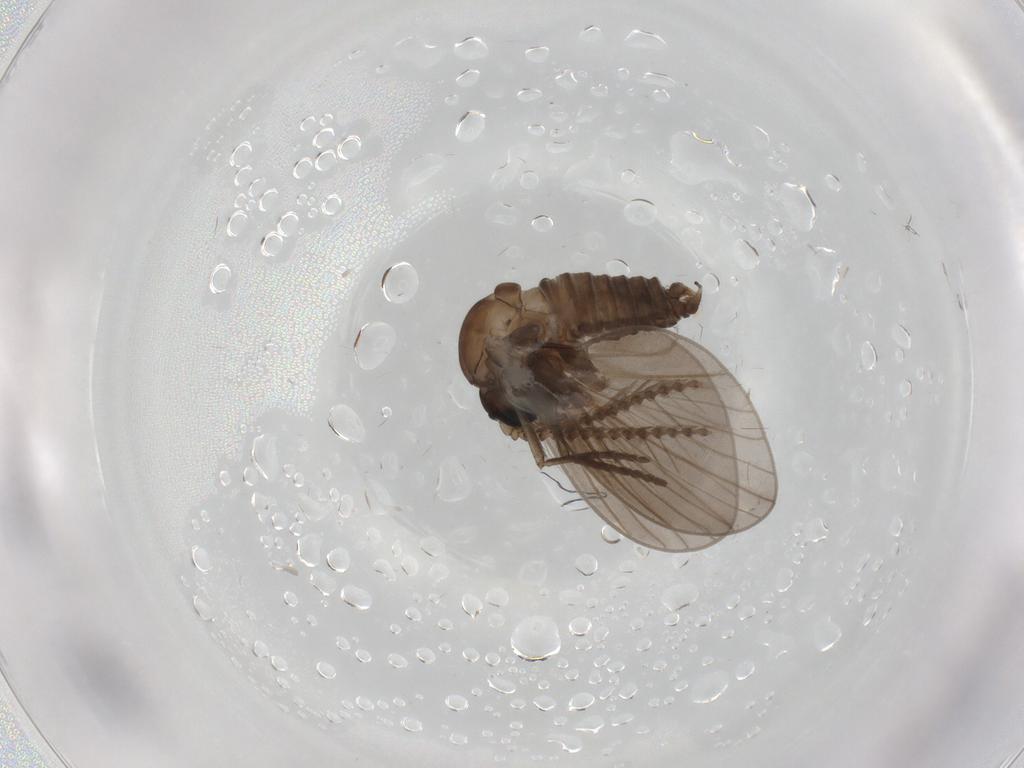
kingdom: Animalia
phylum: Arthropoda
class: Insecta
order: Diptera
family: Psychodidae
